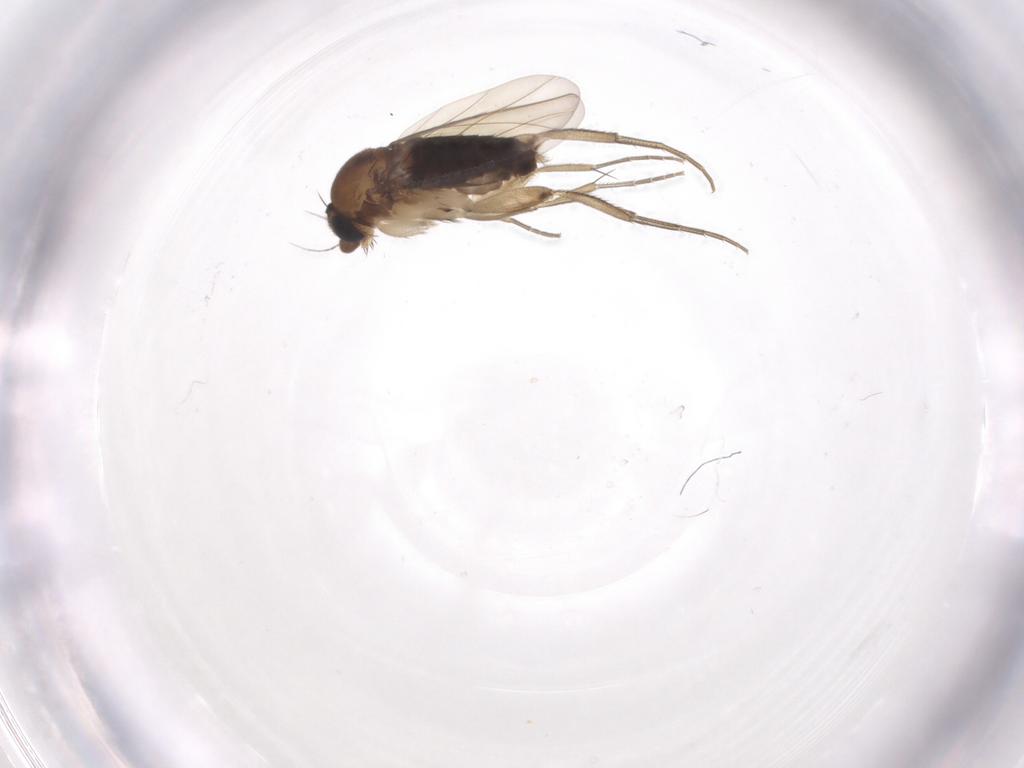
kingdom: Animalia
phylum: Arthropoda
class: Insecta
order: Diptera
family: Phoridae
